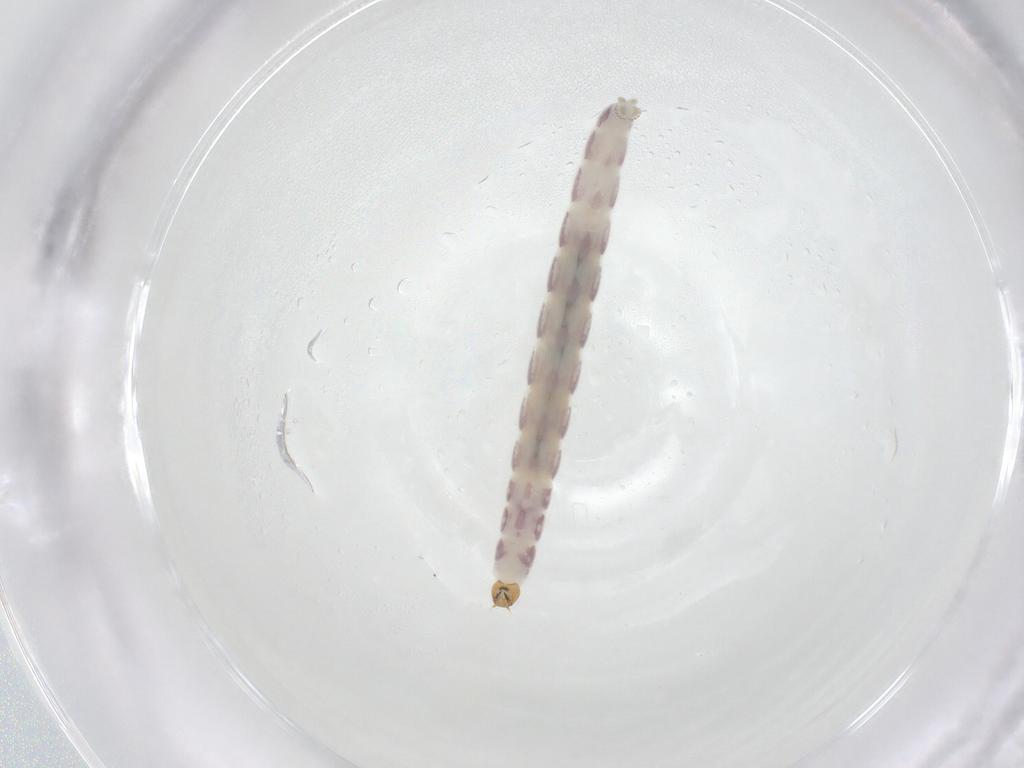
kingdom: Animalia
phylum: Arthropoda
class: Insecta
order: Diptera
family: Chironomidae
